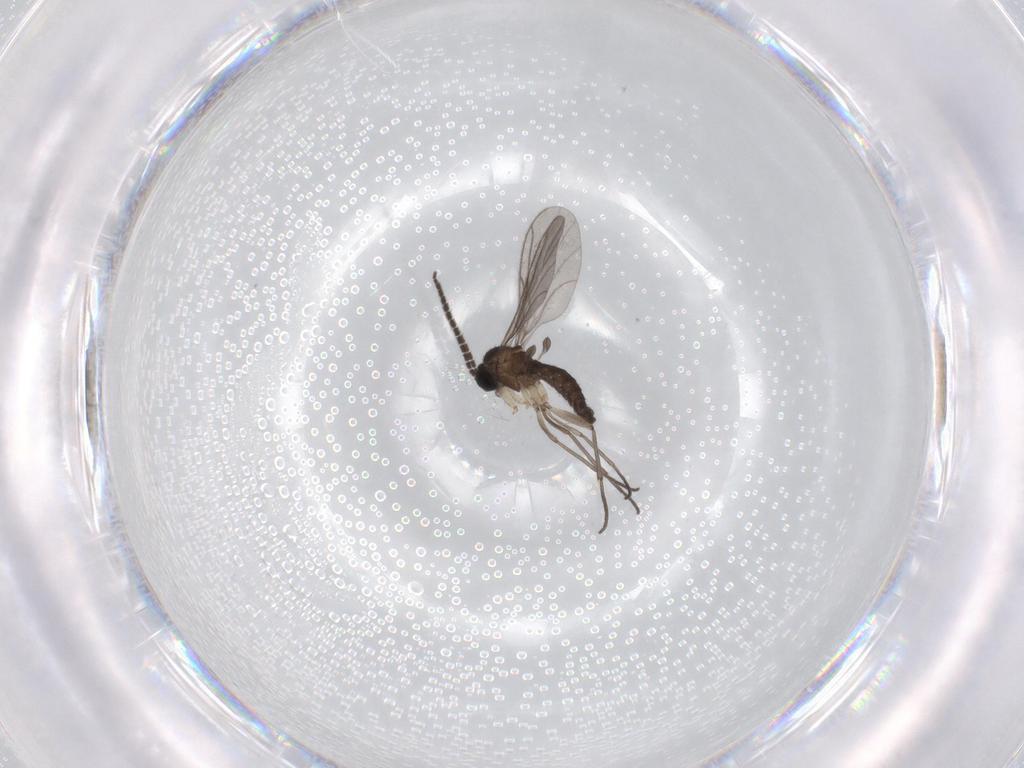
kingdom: Animalia
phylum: Arthropoda
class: Insecta
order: Diptera
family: Sciaridae
